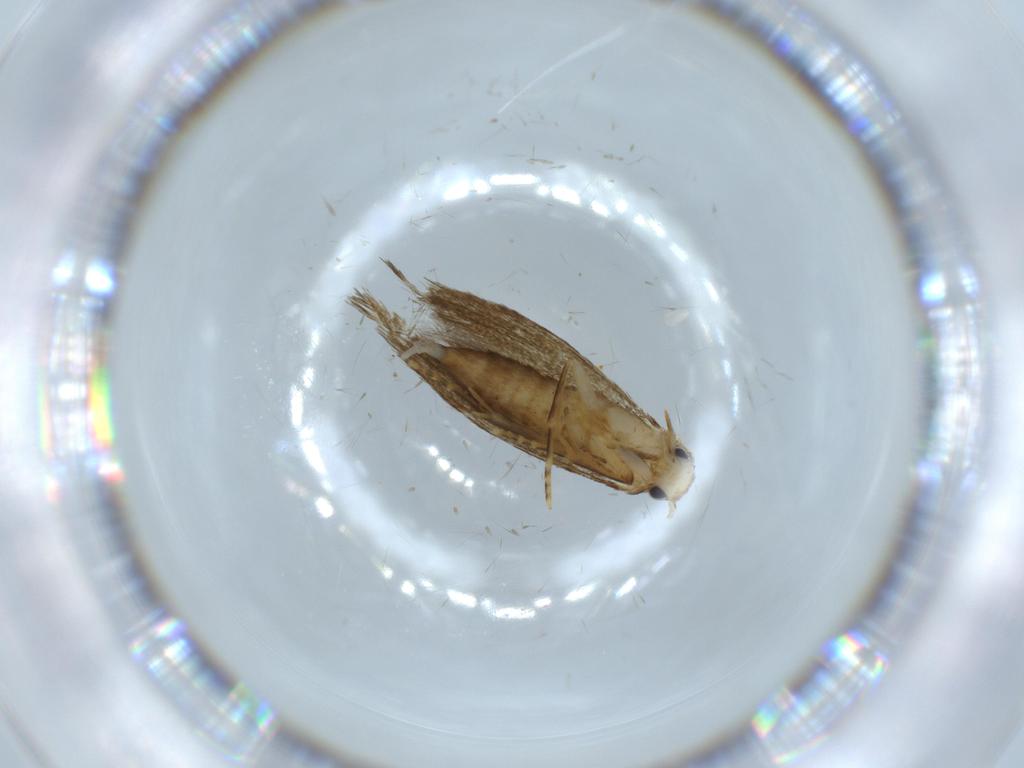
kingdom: Animalia
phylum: Arthropoda
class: Insecta
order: Lepidoptera
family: Tineidae
